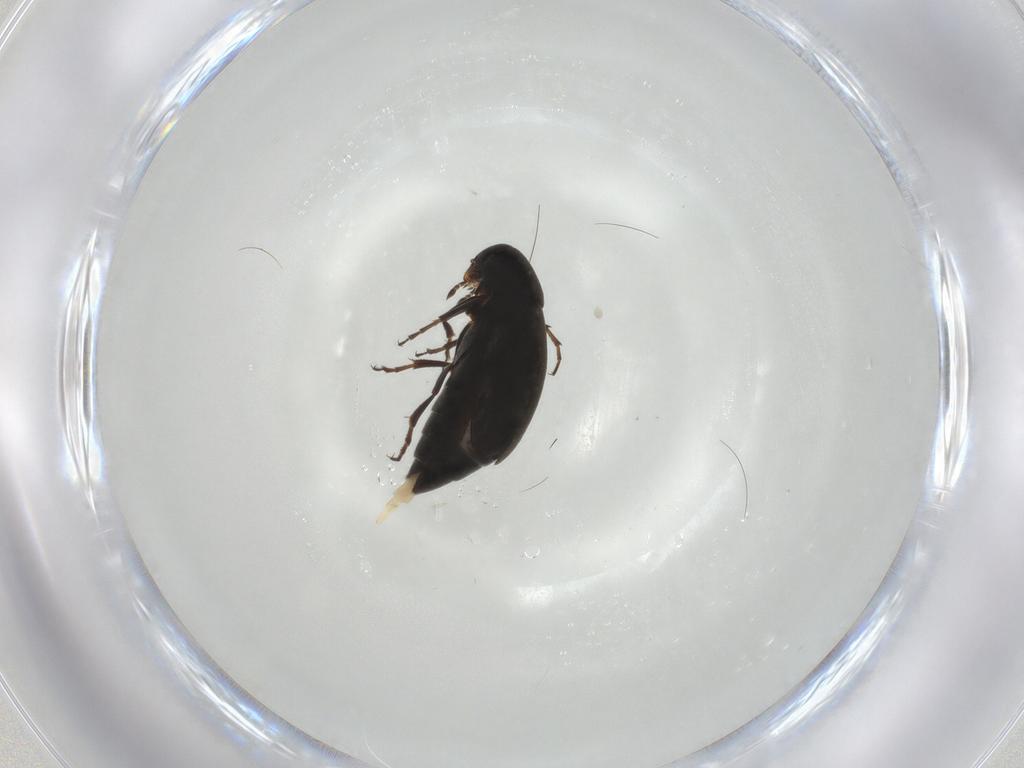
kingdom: Animalia
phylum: Arthropoda
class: Insecta
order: Coleoptera
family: Scraptiidae
